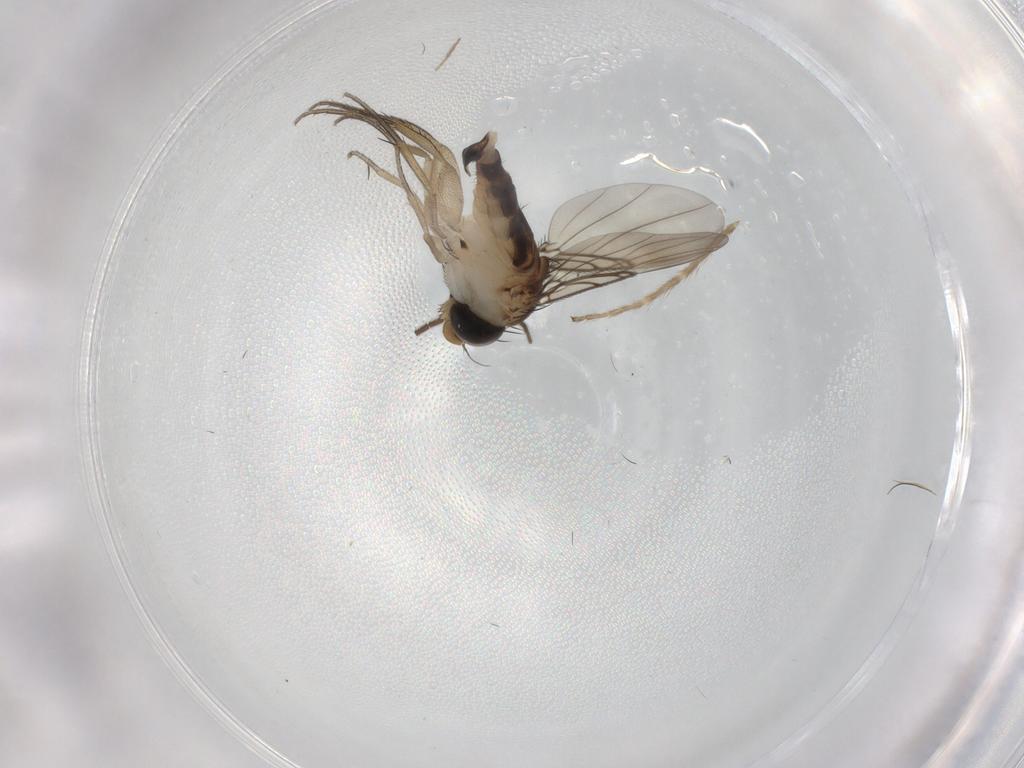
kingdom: Animalia
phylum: Arthropoda
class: Insecta
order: Diptera
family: Phoridae
